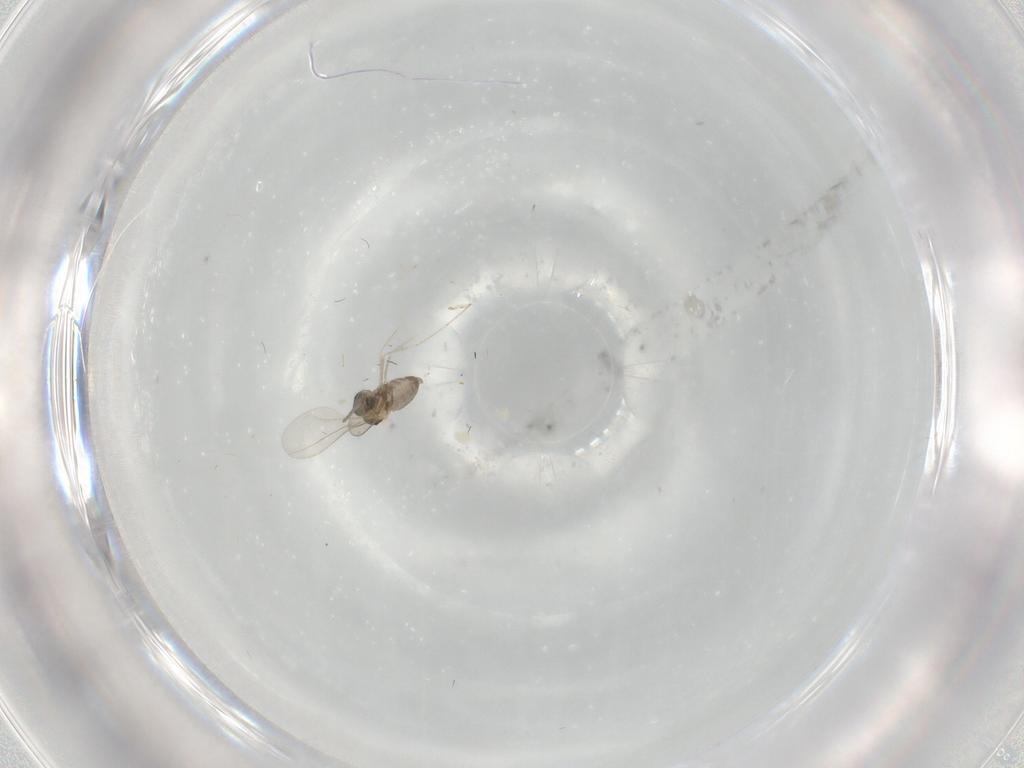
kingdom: Animalia
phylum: Arthropoda
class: Insecta
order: Diptera
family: Cecidomyiidae
